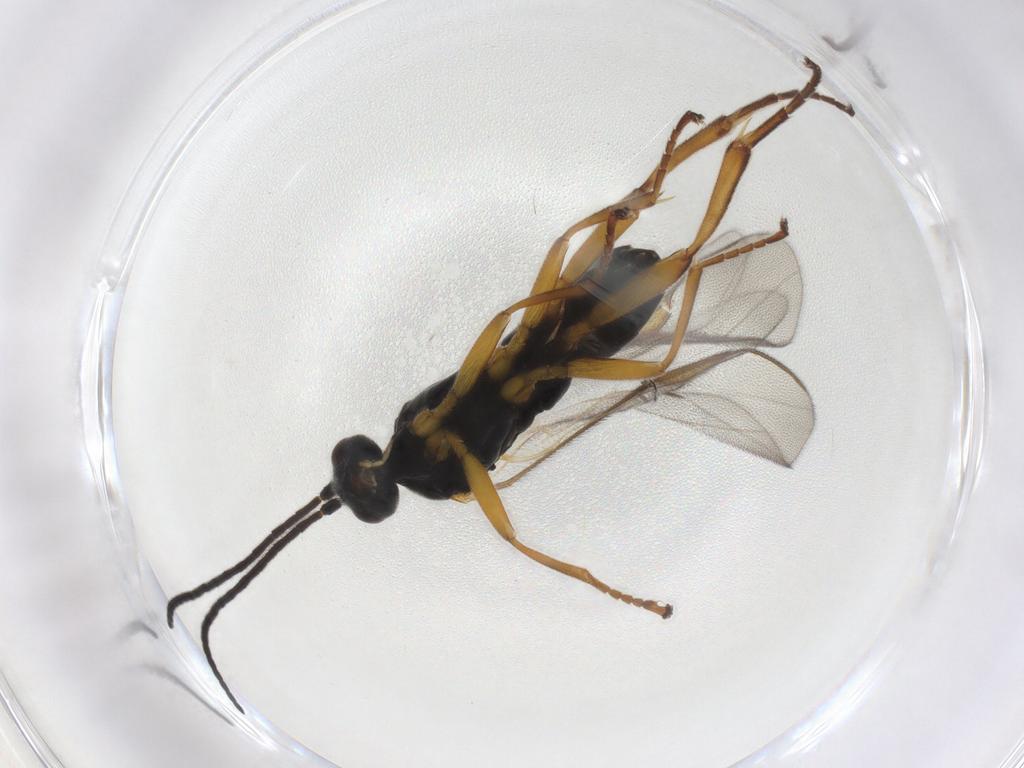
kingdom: Animalia
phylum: Arthropoda
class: Insecta
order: Hymenoptera
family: Braconidae
